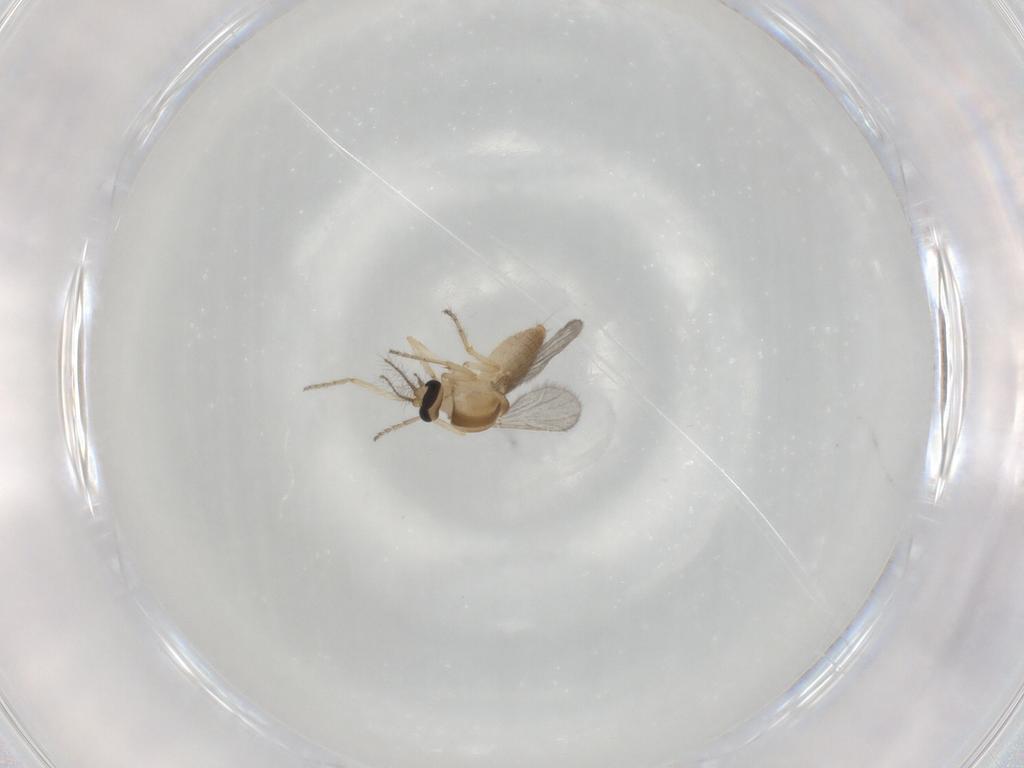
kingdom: Animalia
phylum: Arthropoda
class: Insecta
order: Diptera
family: Ceratopogonidae
